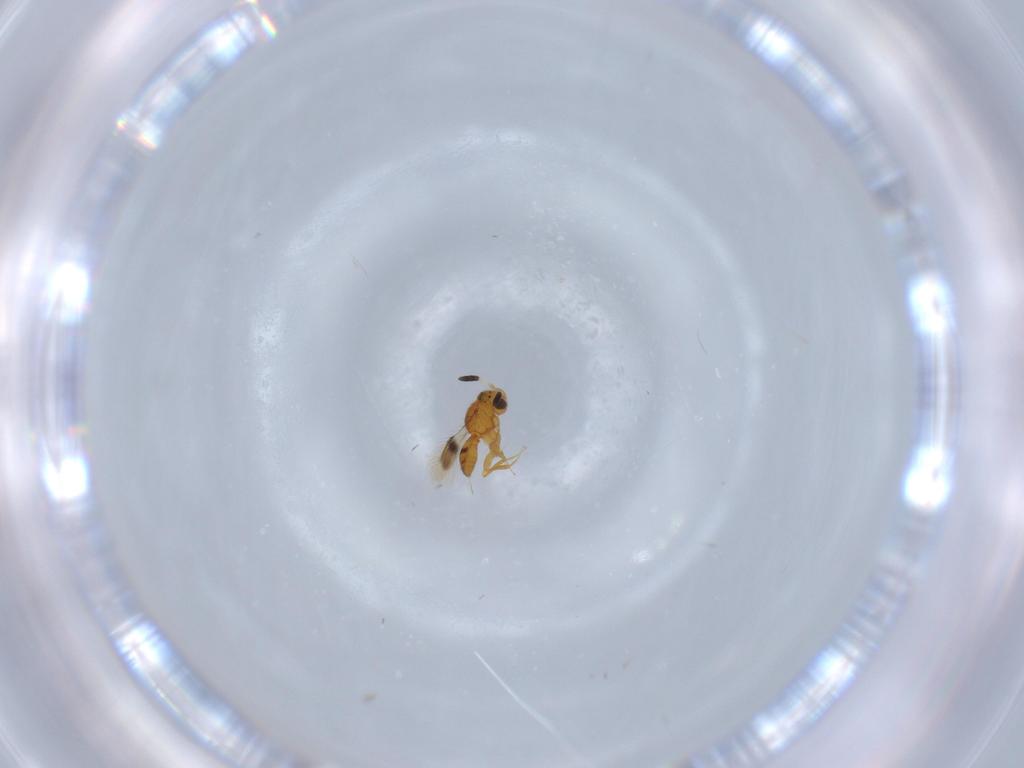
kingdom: Animalia
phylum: Arthropoda
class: Insecta
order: Hymenoptera
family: Scelionidae
